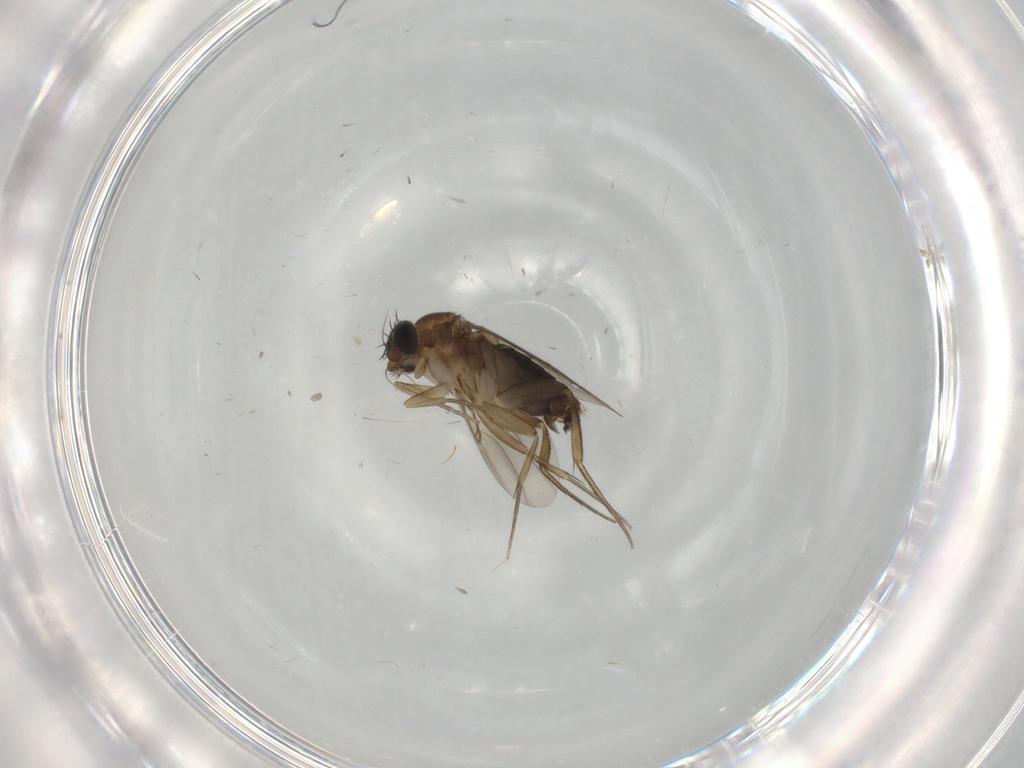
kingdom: Animalia
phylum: Arthropoda
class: Insecta
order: Diptera
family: Phoridae
